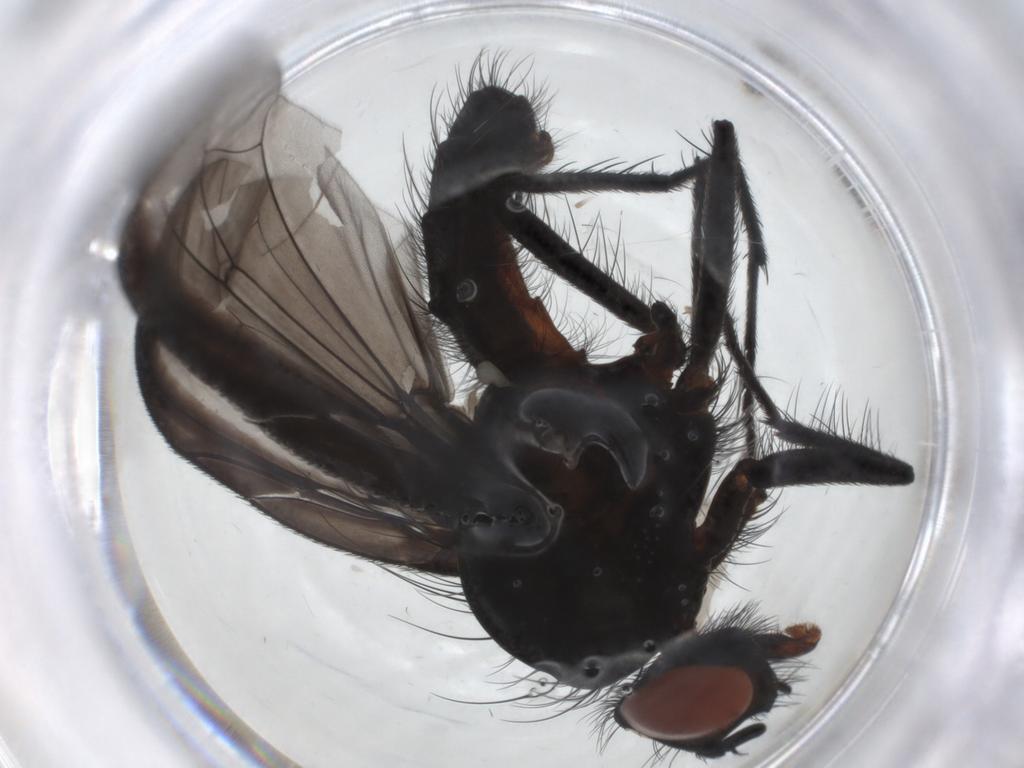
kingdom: Animalia
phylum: Arthropoda
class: Insecta
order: Diptera
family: Anthomyiidae
